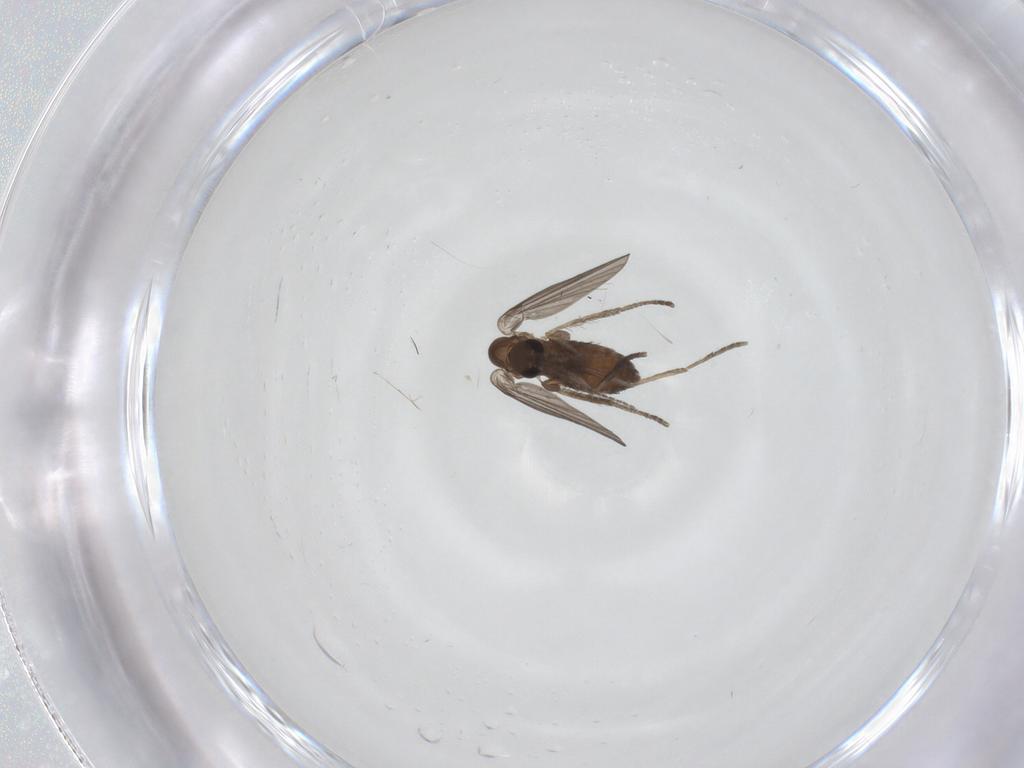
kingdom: Animalia
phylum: Arthropoda
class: Insecta
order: Diptera
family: Psychodidae
